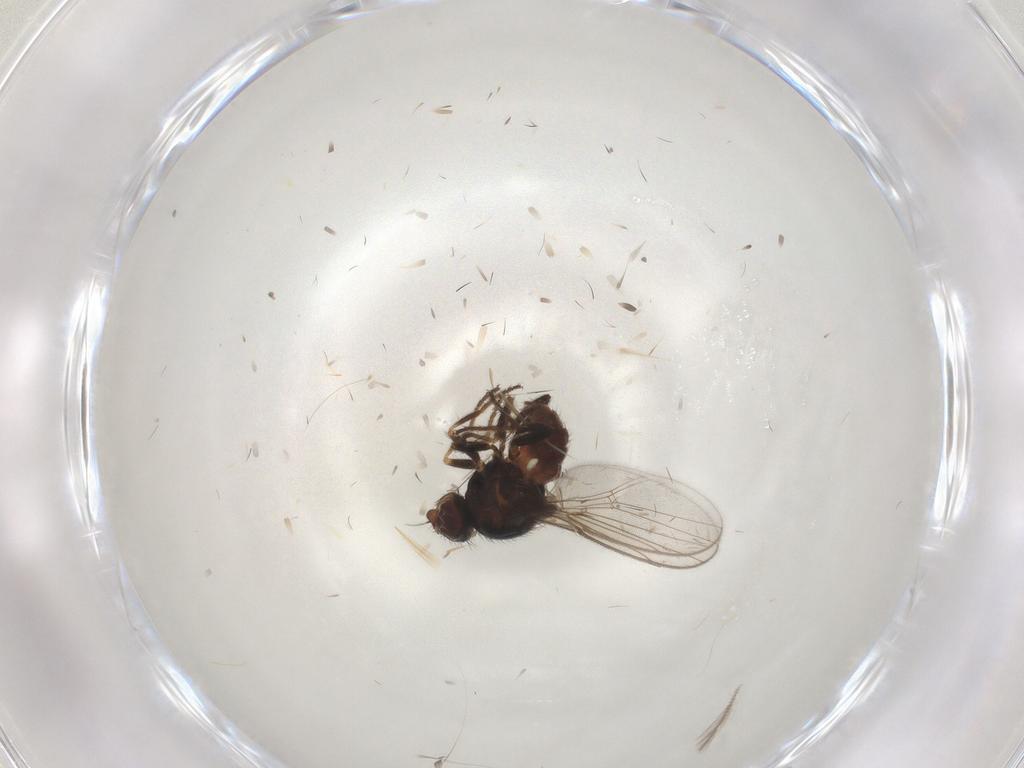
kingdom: Animalia
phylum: Arthropoda
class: Insecta
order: Diptera
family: Chloropidae
